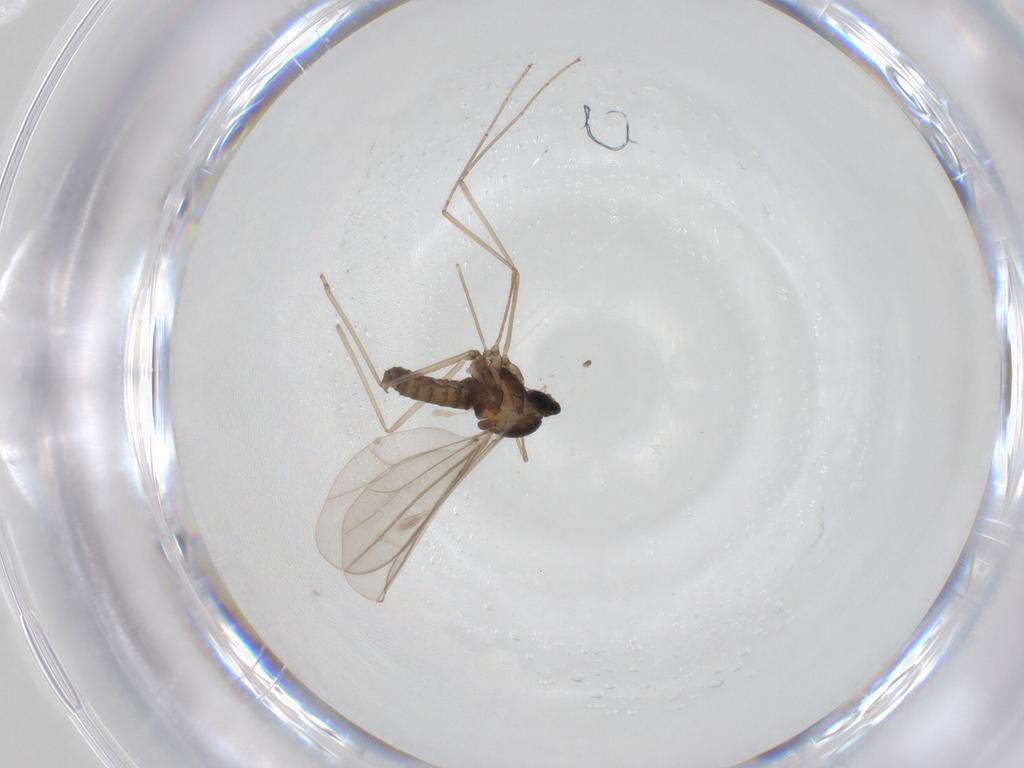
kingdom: Animalia
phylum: Arthropoda
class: Insecta
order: Diptera
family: Cecidomyiidae
